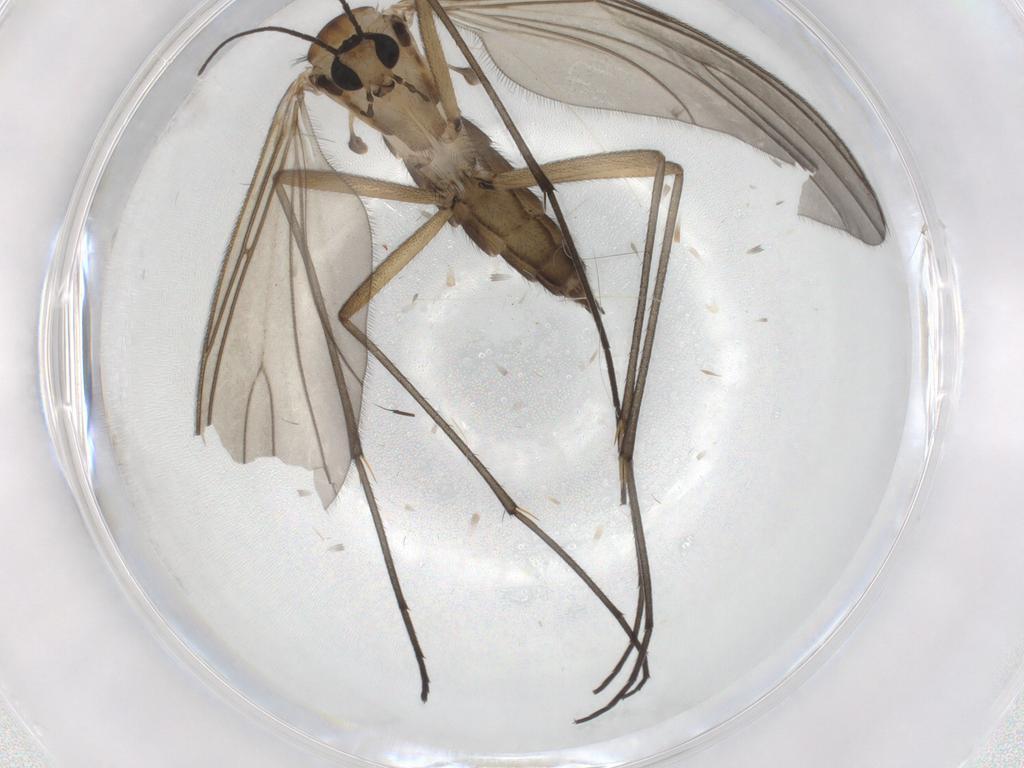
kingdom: Animalia
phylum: Arthropoda
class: Insecta
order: Diptera
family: Sciaridae
